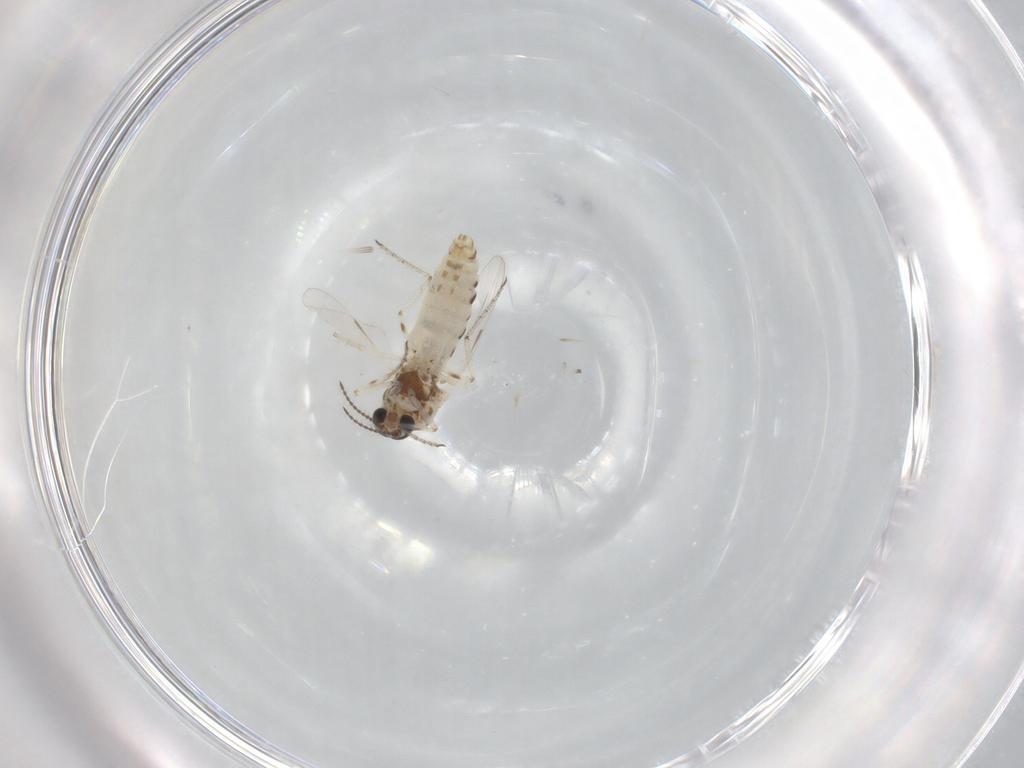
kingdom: Animalia
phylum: Arthropoda
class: Insecta
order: Diptera
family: Ceratopogonidae
